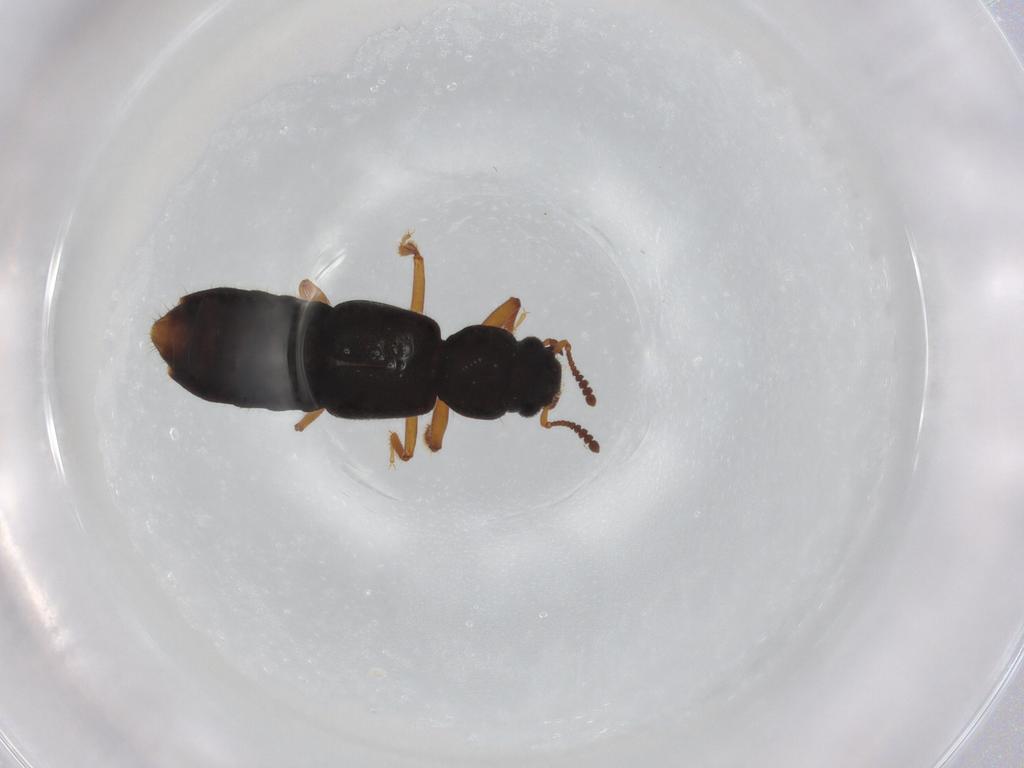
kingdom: Animalia
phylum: Arthropoda
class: Insecta
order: Coleoptera
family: Staphylinidae
